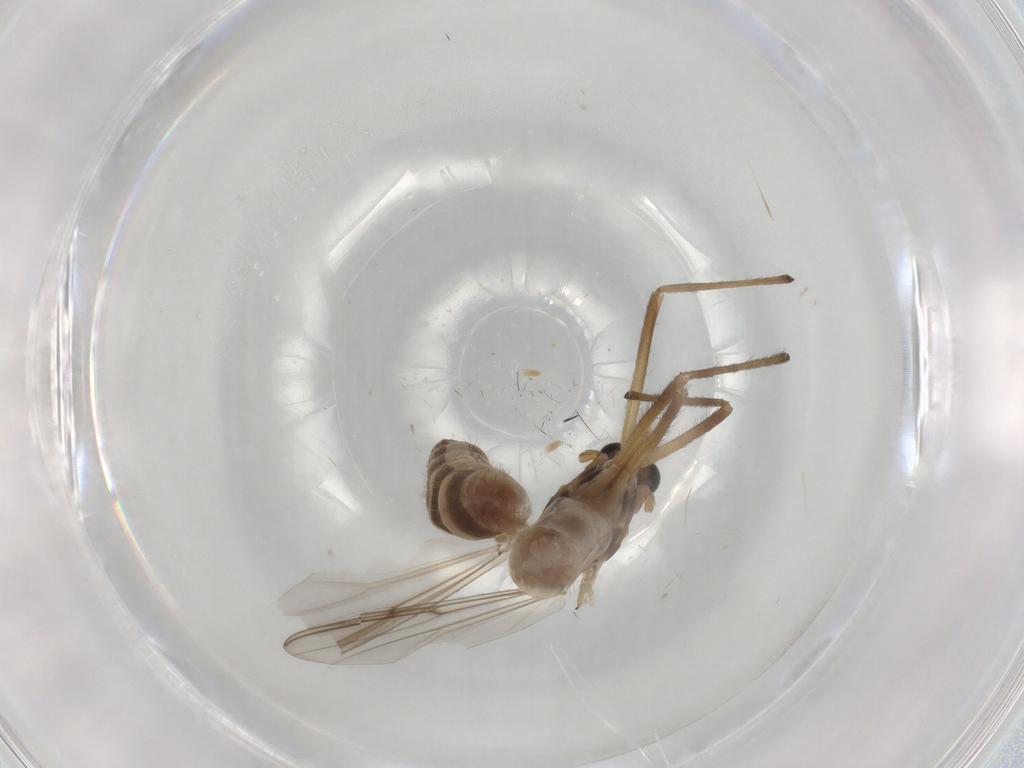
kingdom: Animalia
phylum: Arthropoda
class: Insecta
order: Diptera
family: Chironomidae
